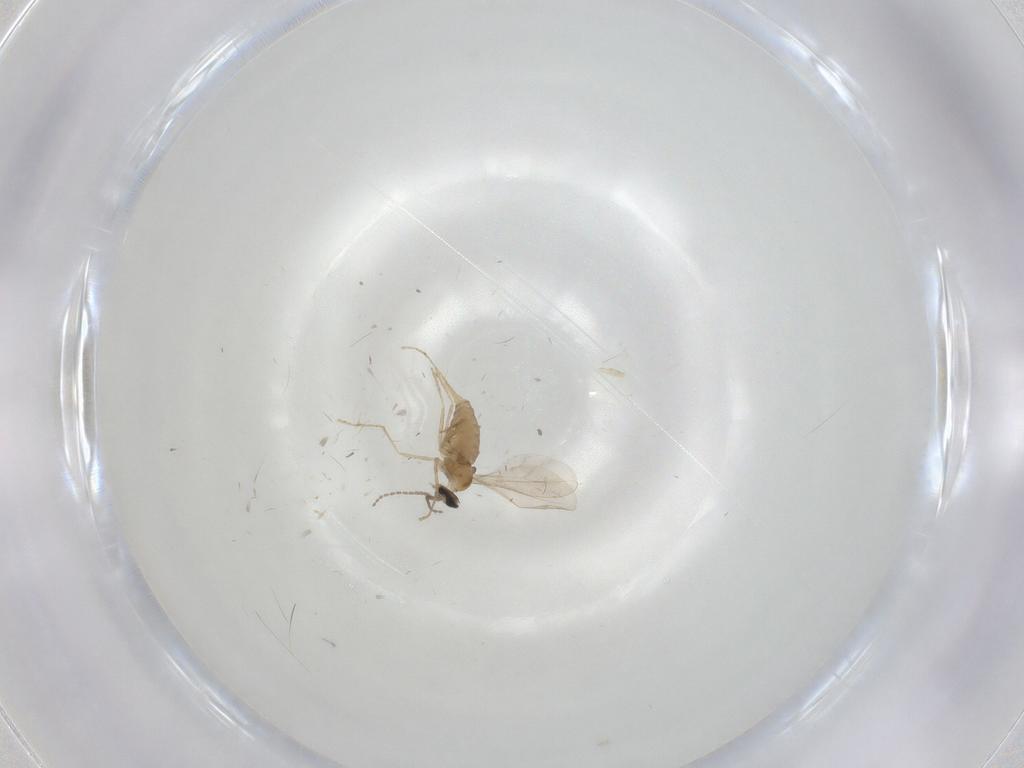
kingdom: Animalia
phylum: Arthropoda
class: Insecta
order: Diptera
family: Cecidomyiidae
